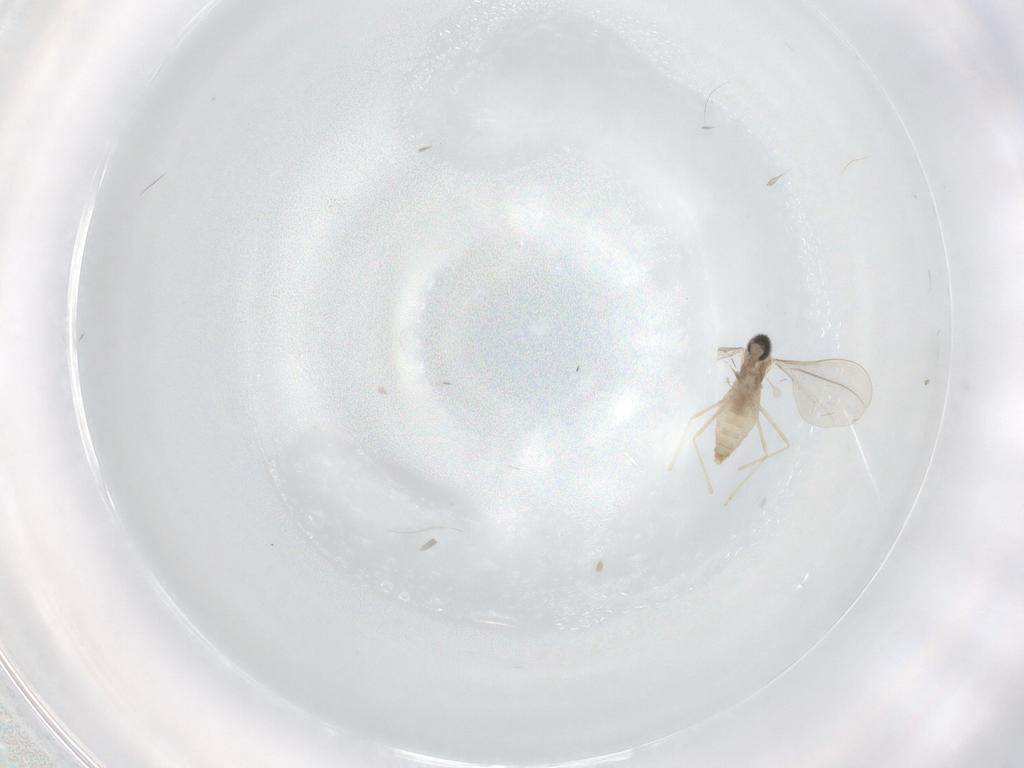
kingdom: Animalia
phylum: Arthropoda
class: Insecta
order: Diptera
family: Cecidomyiidae
